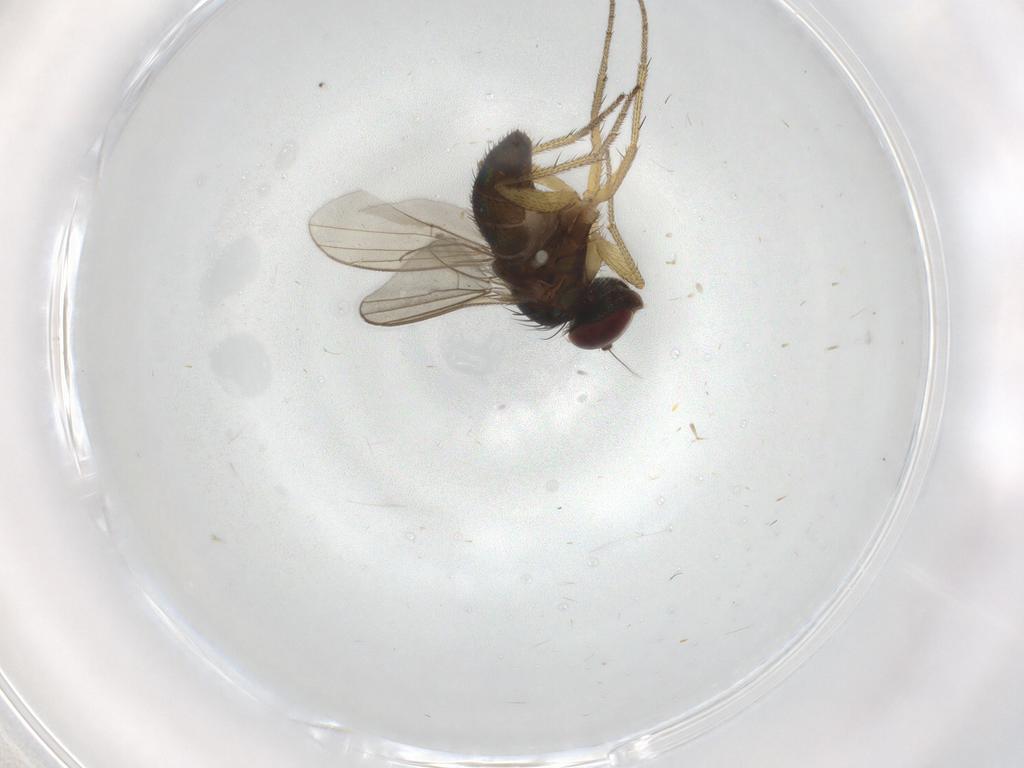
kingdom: Animalia
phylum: Arthropoda
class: Insecta
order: Diptera
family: Dolichopodidae
